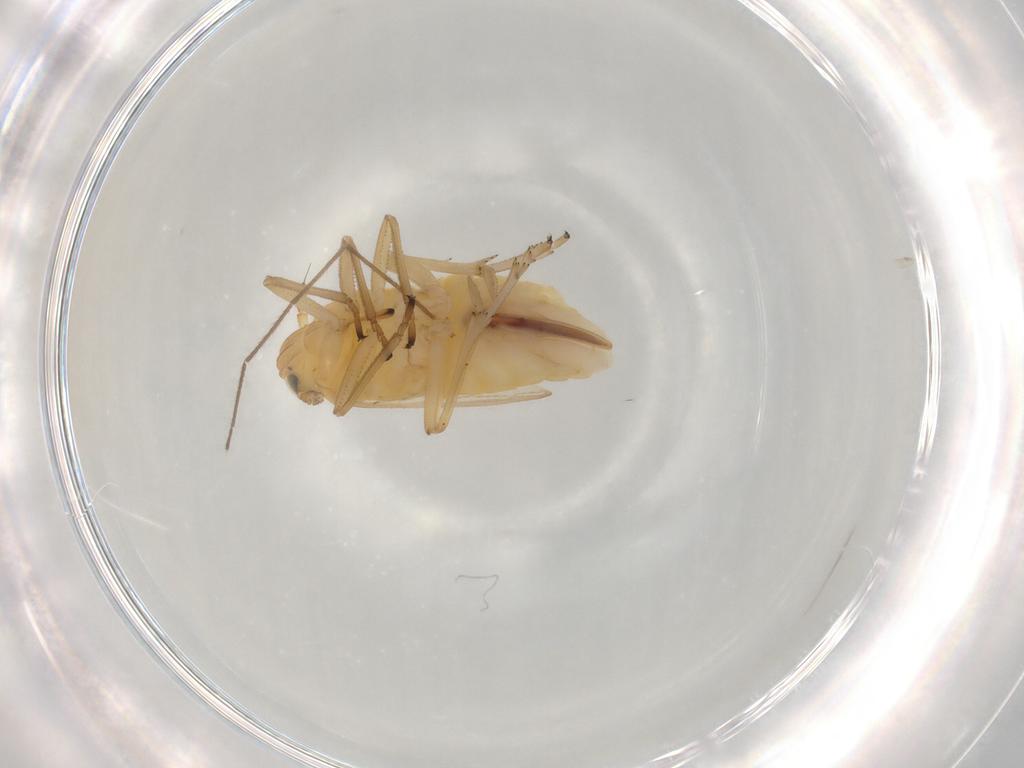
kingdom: Animalia
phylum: Arthropoda
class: Insecta
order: Hemiptera
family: Delphacidae
